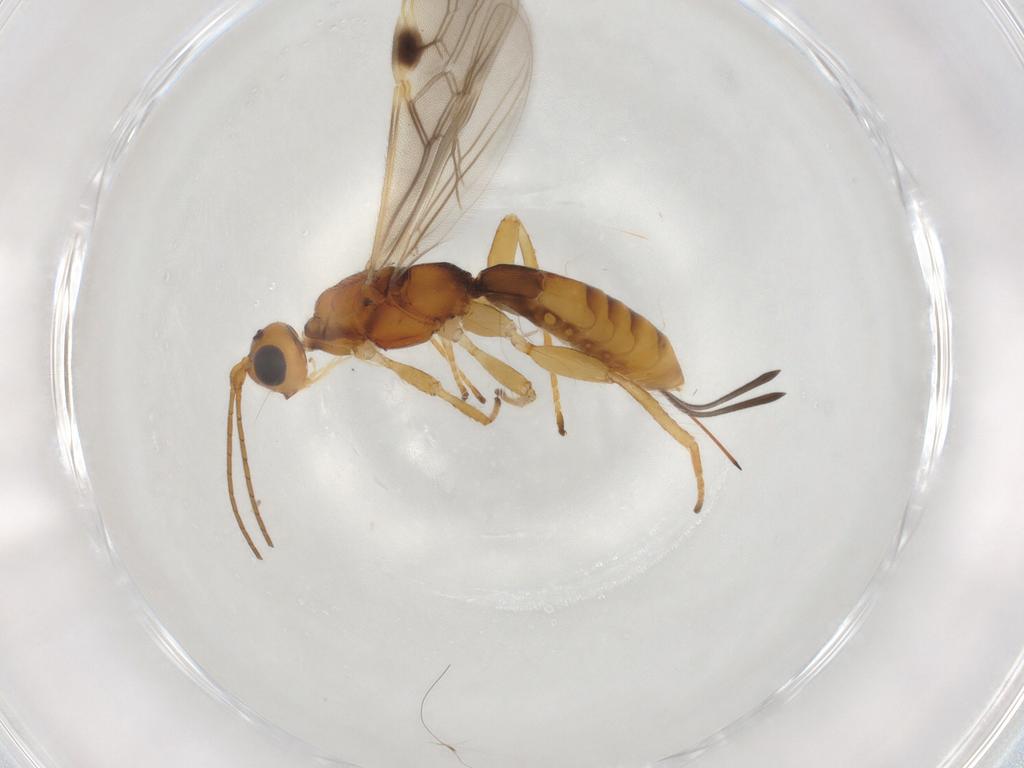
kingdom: Animalia
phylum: Arthropoda
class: Insecta
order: Hymenoptera
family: Braconidae
